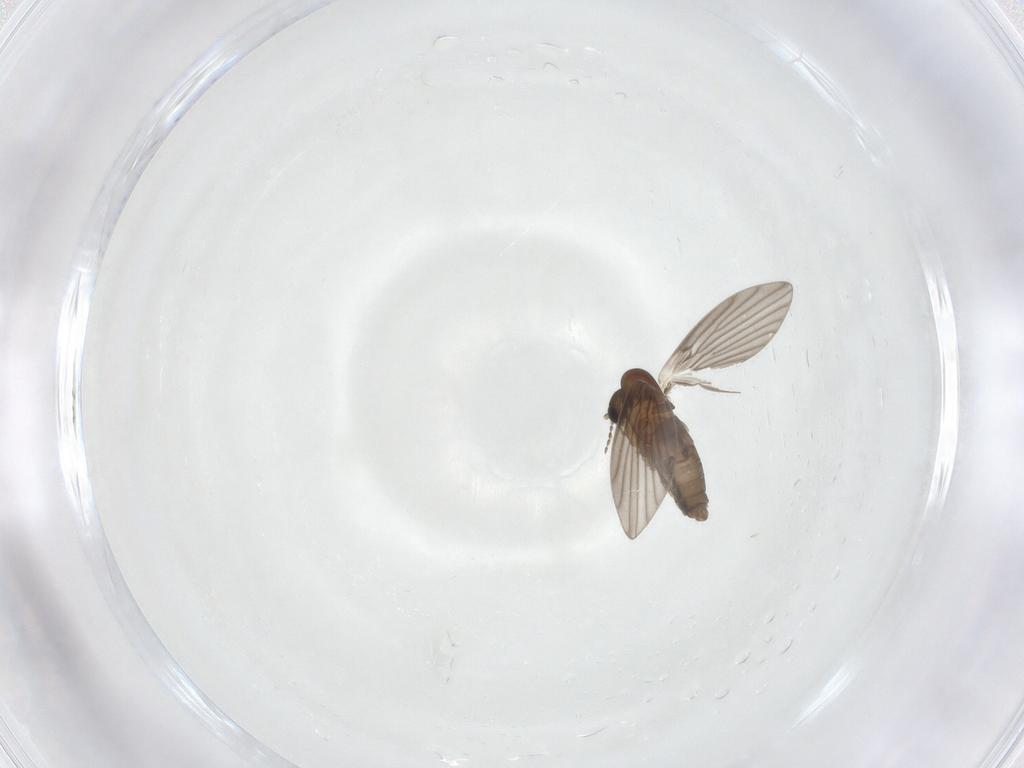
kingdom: Animalia
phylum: Arthropoda
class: Insecta
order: Diptera
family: Psychodidae
